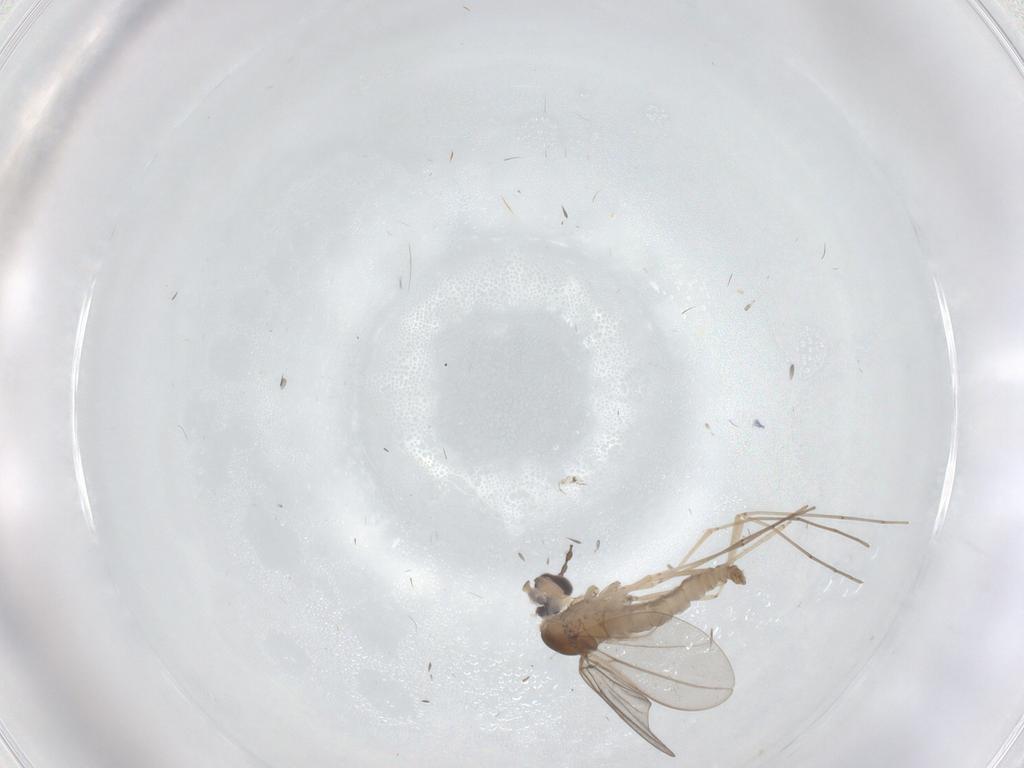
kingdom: Animalia
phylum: Arthropoda
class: Insecta
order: Diptera
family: Cecidomyiidae
